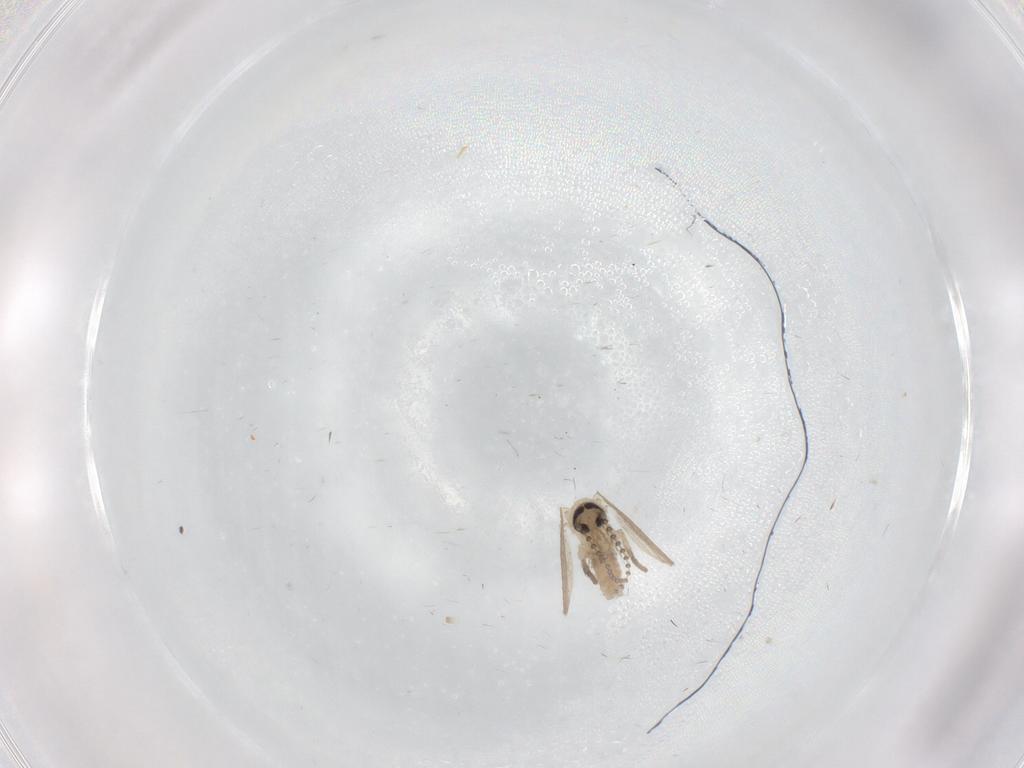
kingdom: Animalia
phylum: Arthropoda
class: Insecta
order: Diptera
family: Psychodidae
